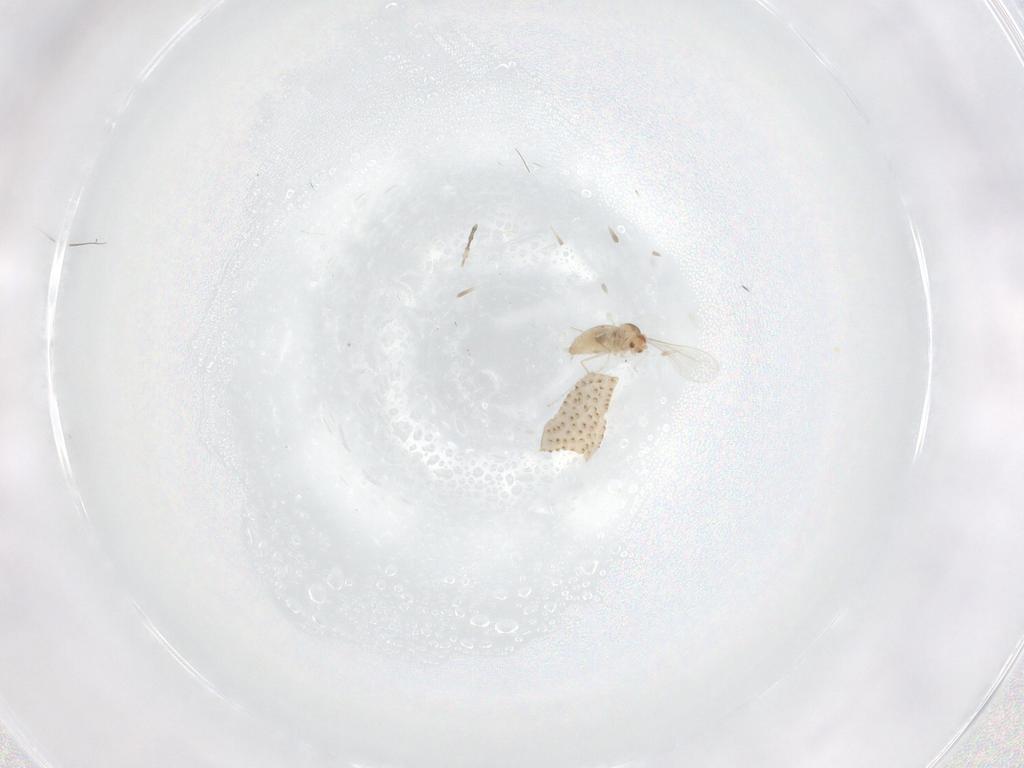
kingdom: Animalia
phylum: Arthropoda
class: Insecta
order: Diptera
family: Cecidomyiidae
